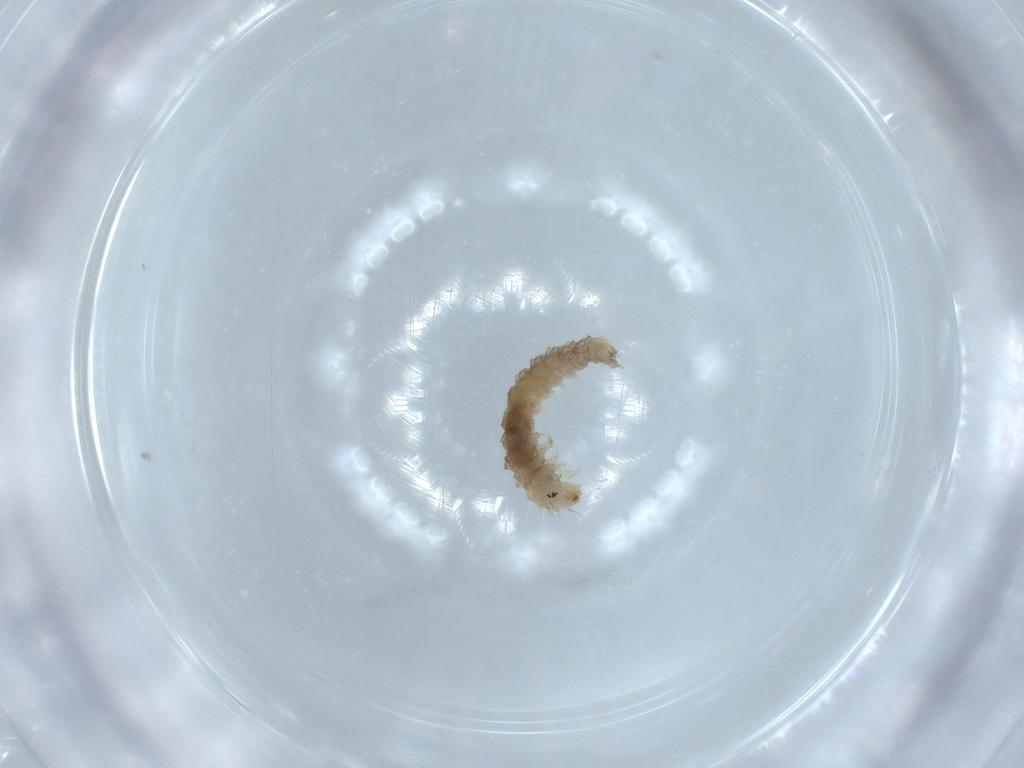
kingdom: Animalia
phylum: Arthropoda
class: Insecta
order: Lepidoptera
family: Immidae
